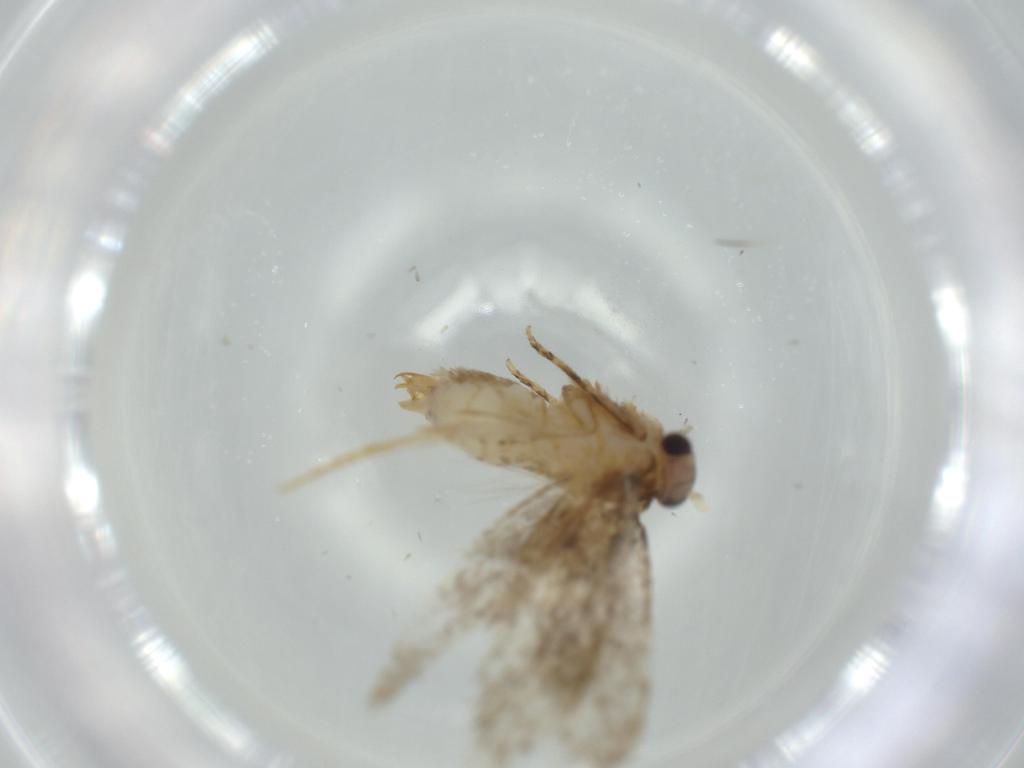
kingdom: Animalia
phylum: Arthropoda
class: Insecta
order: Lepidoptera
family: Tineidae
